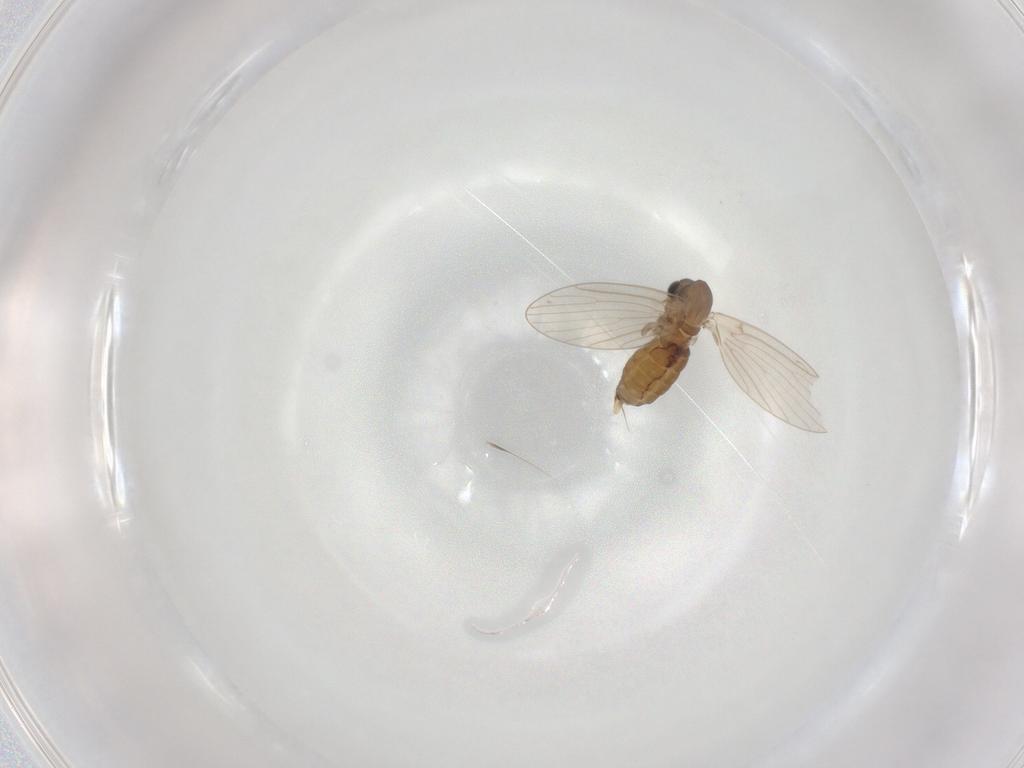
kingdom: Animalia
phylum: Arthropoda
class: Insecta
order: Diptera
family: Psychodidae
